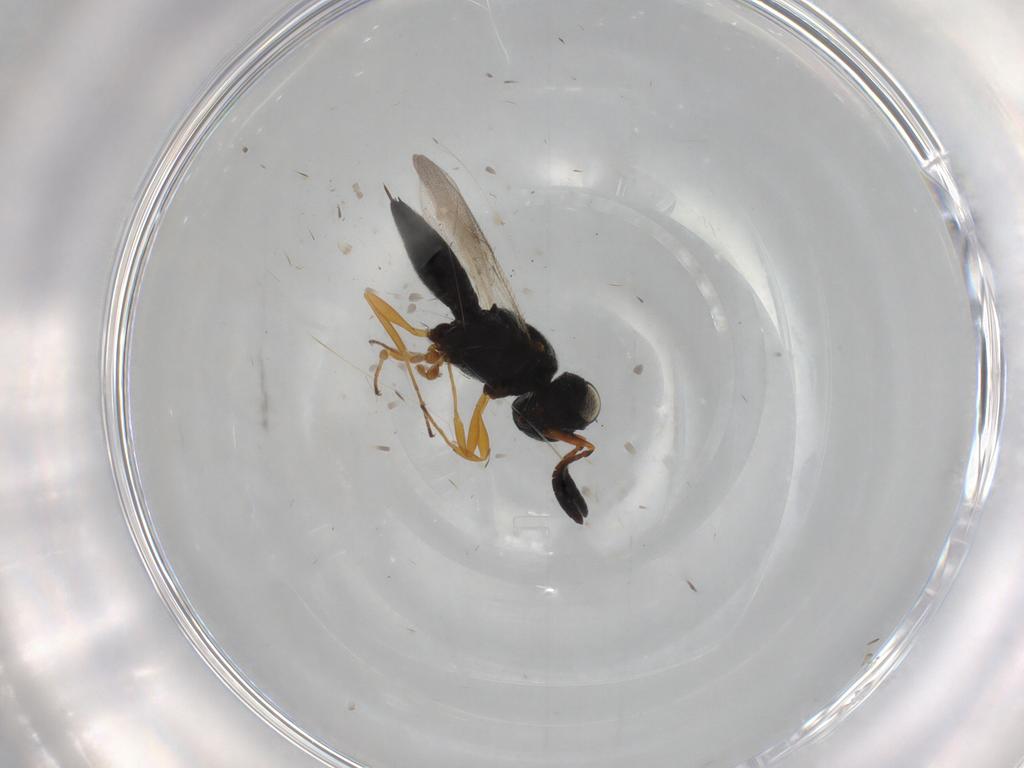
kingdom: Animalia
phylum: Arthropoda
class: Insecta
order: Hymenoptera
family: Scelionidae
